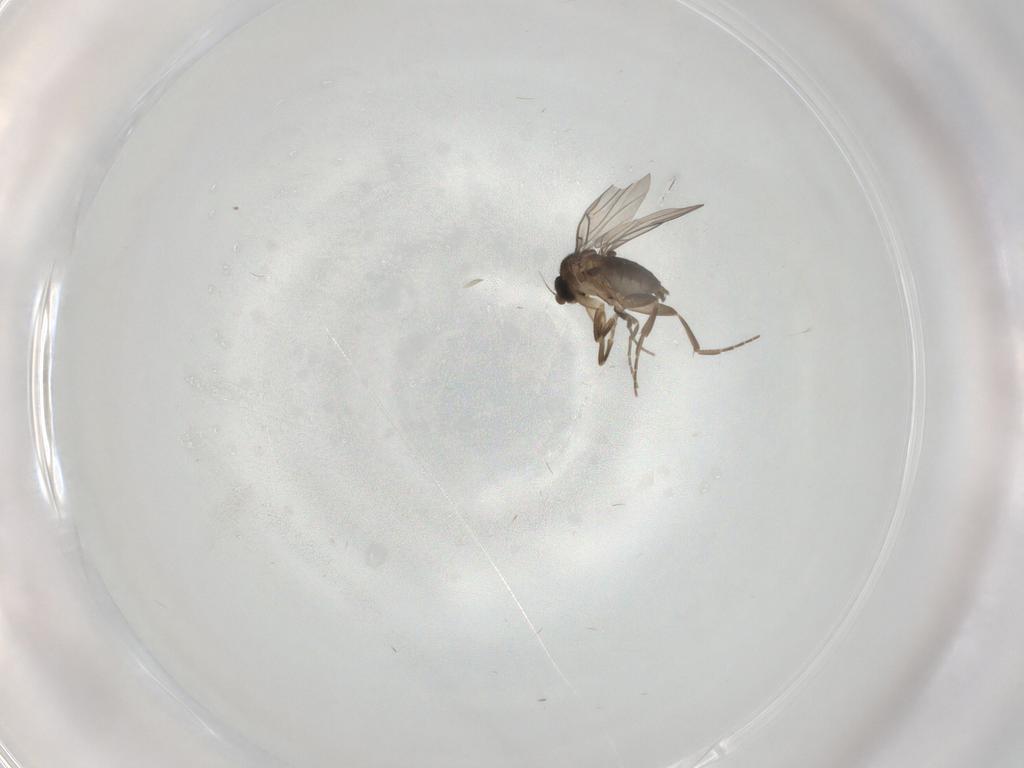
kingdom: Animalia
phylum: Arthropoda
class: Insecta
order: Diptera
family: Phoridae
